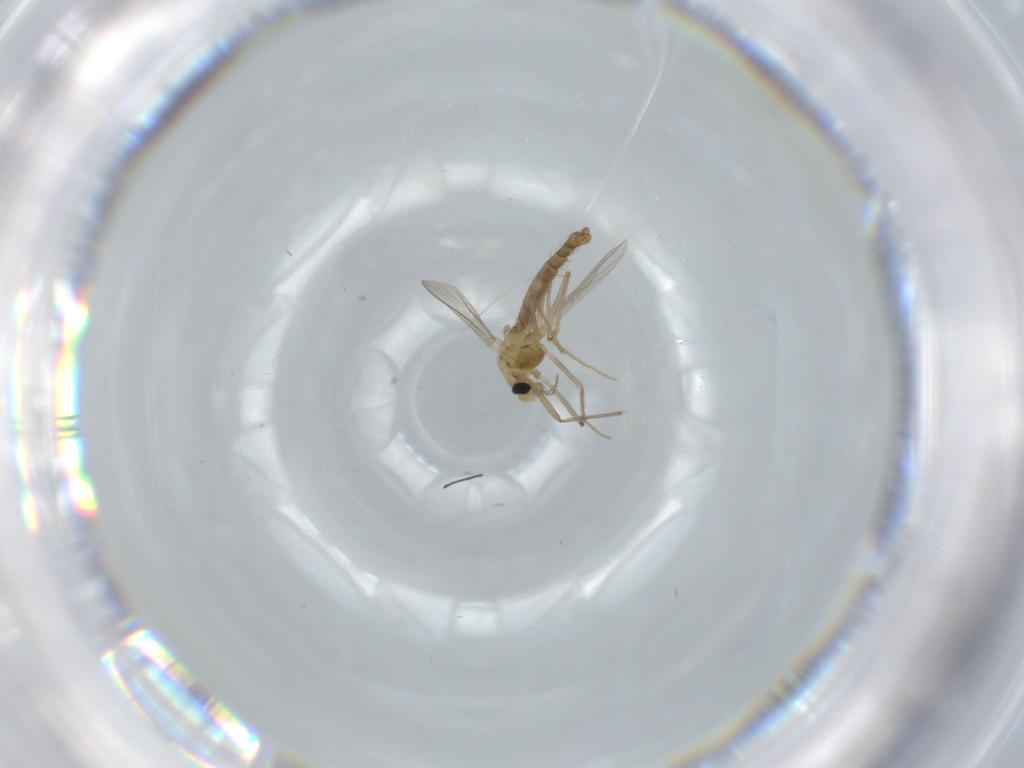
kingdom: Animalia
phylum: Arthropoda
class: Insecta
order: Diptera
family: Chironomidae
